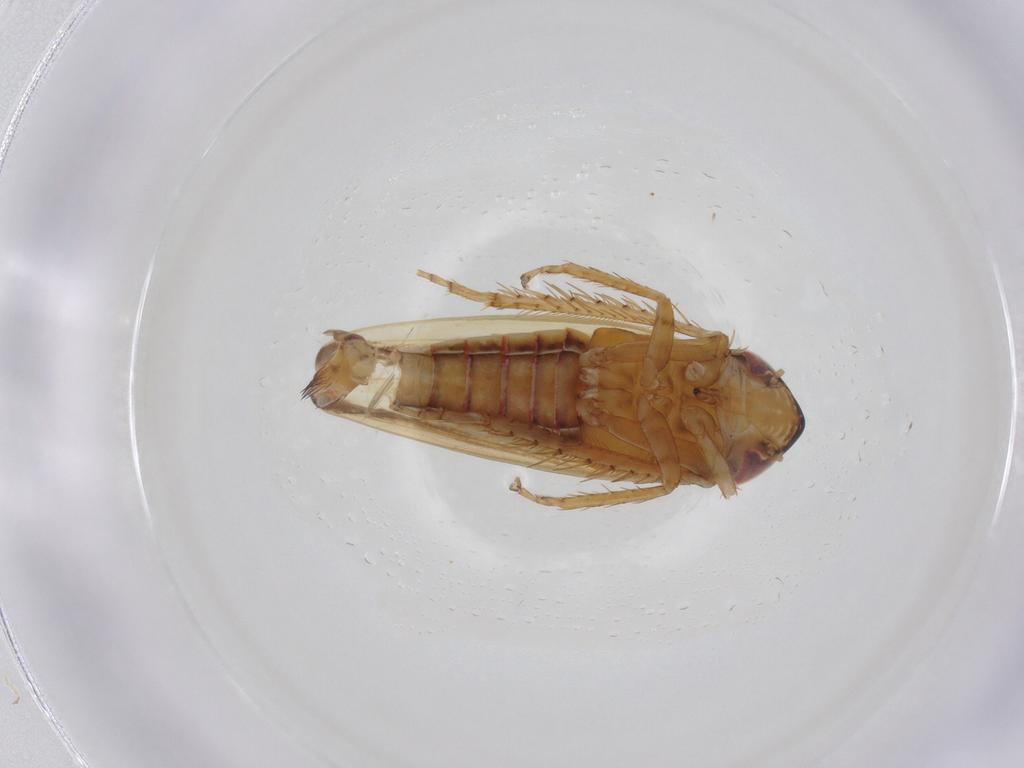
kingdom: Animalia
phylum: Arthropoda
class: Insecta
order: Hemiptera
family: Cicadellidae
